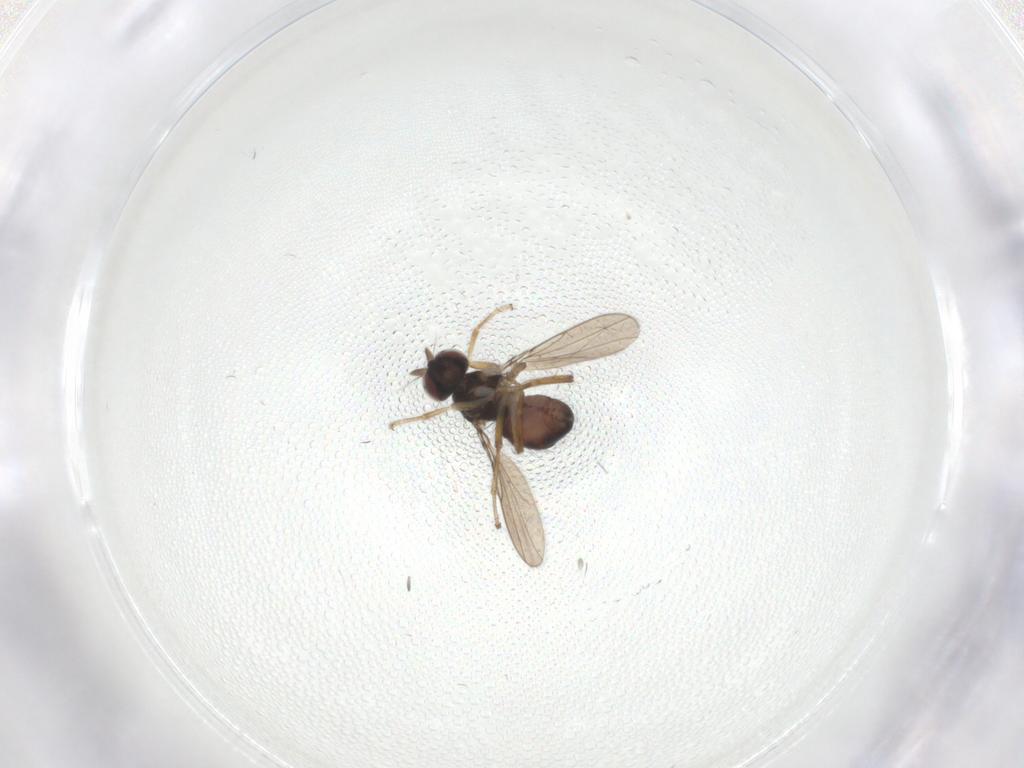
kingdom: Animalia
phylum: Arthropoda
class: Insecta
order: Diptera
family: Ephydridae
